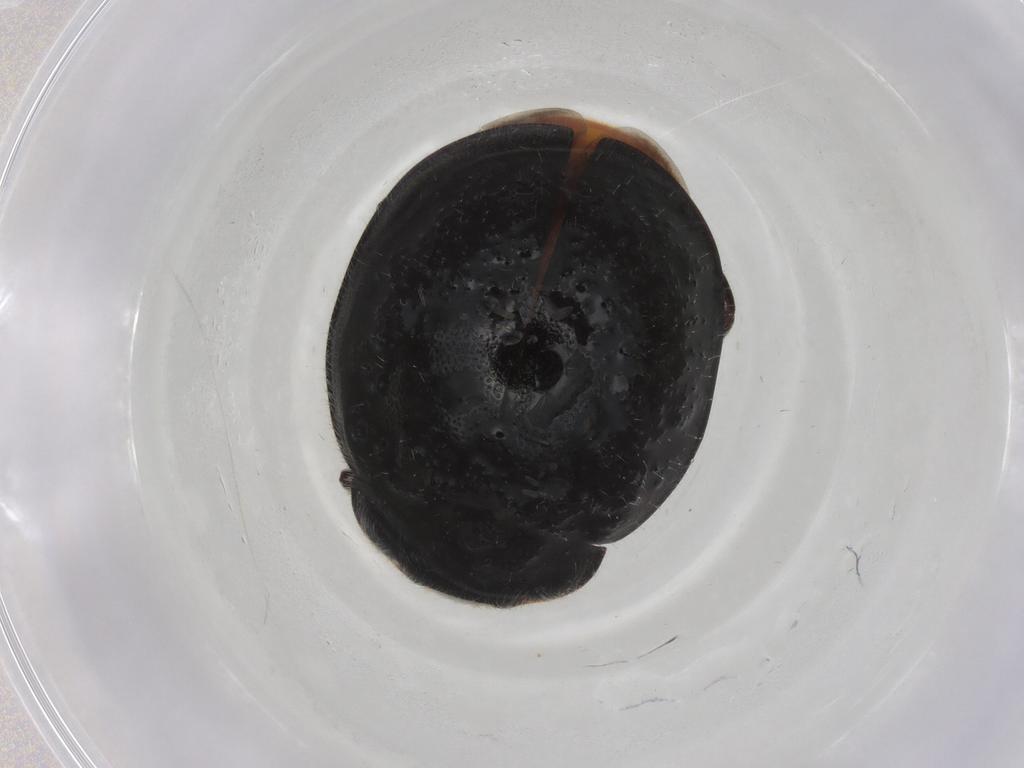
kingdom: Animalia
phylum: Arthropoda
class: Insecta
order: Coleoptera
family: Coccinellidae
